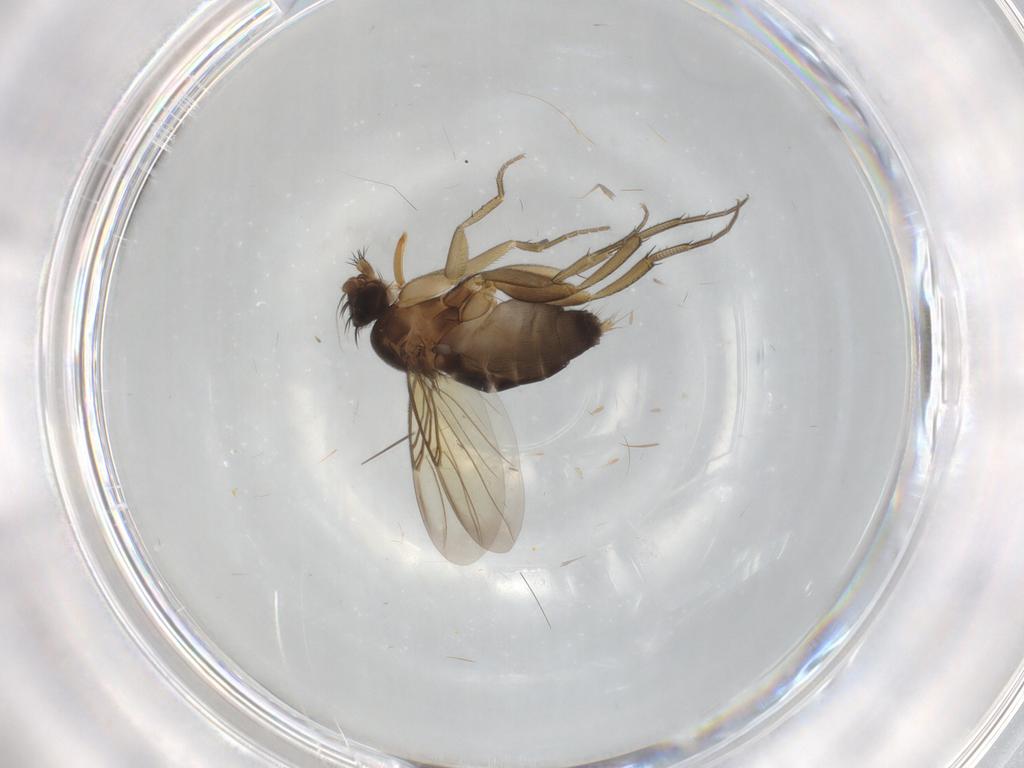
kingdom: Animalia
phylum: Arthropoda
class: Insecta
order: Diptera
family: Phoridae
